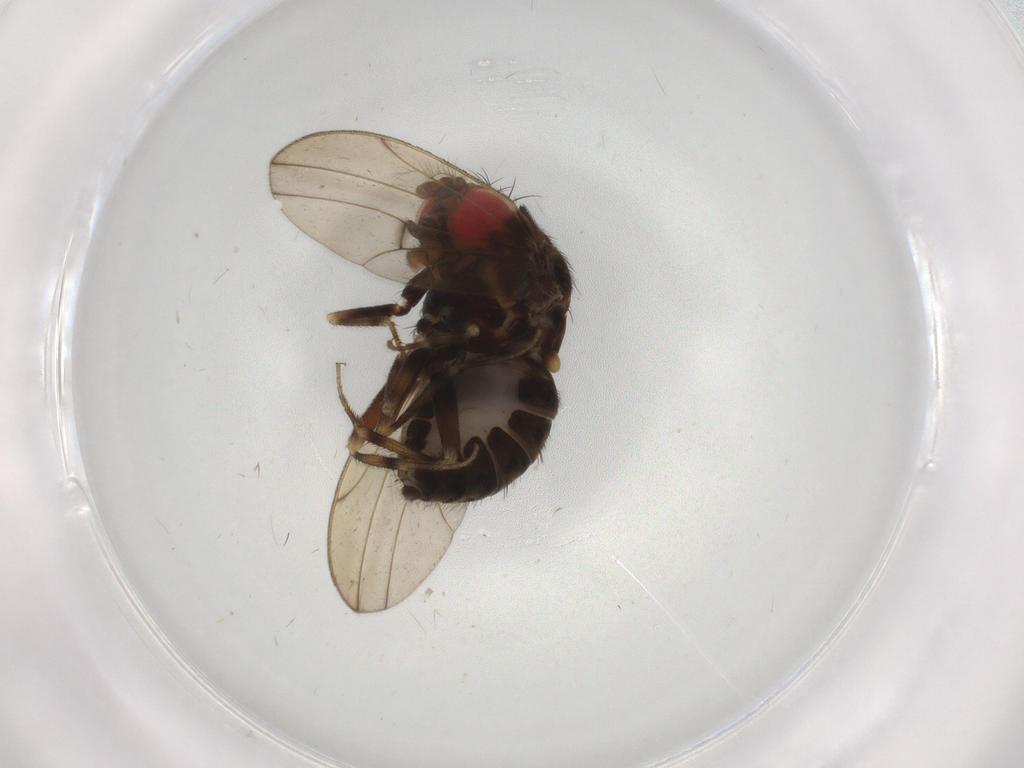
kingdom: Animalia
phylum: Arthropoda
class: Insecta
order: Diptera
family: Drosophilidae
